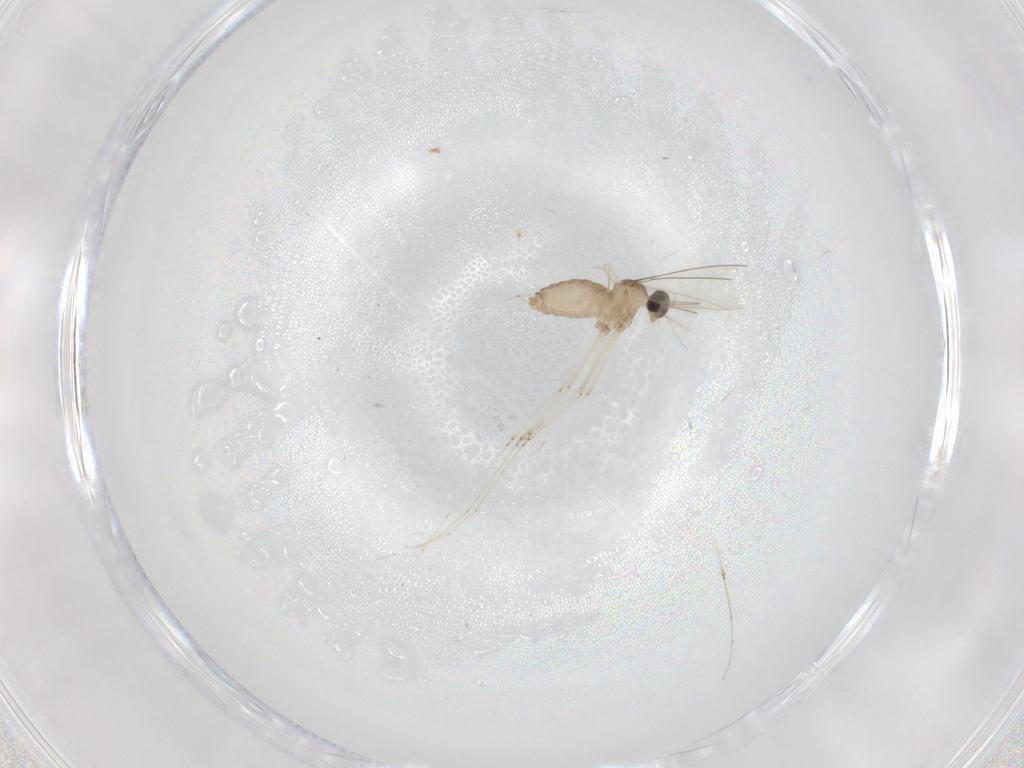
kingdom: Animalia
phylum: Arthropoda
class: Insecta
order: Diptera
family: Cecidomyiidae
